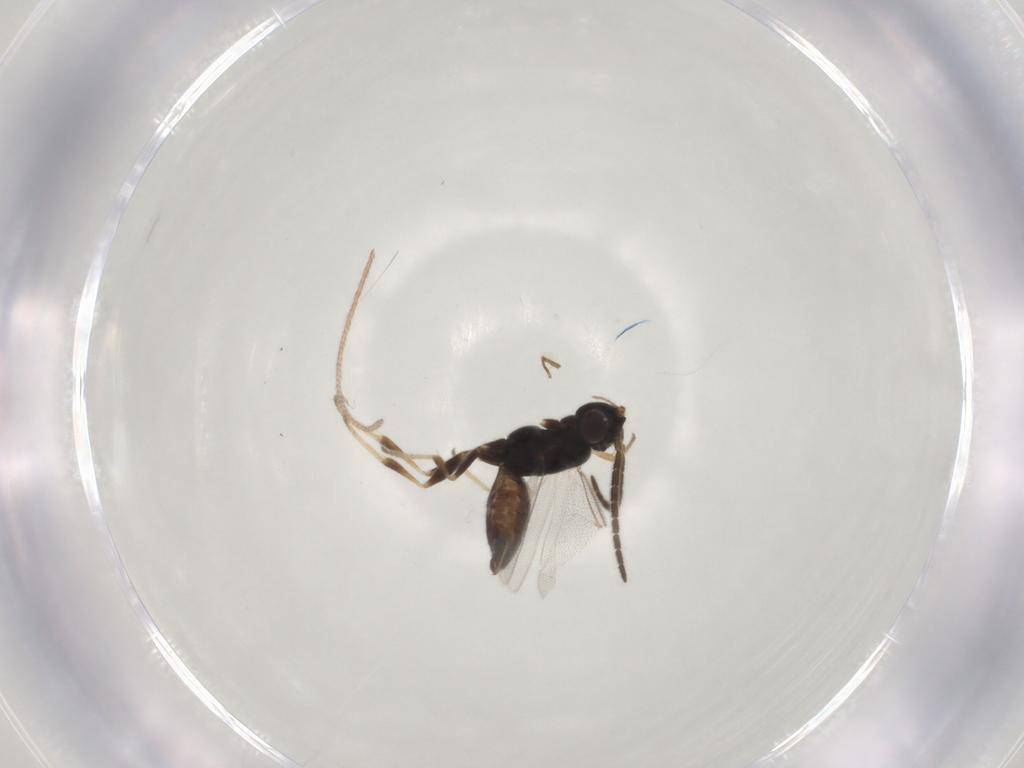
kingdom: Animalia
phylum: Arthropoda
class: Insecta
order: Hymenoptera
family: Dryinidae
